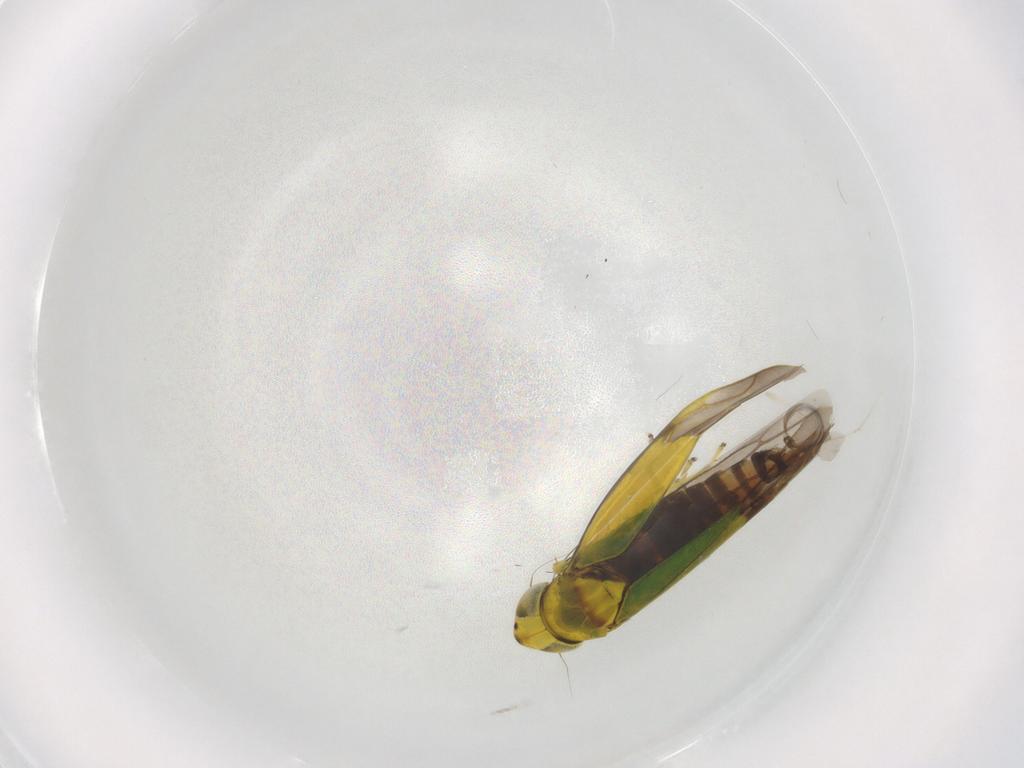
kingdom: Animalia
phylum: Arthropoda
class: Insecta
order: Hemiptera
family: Cicadellidae
